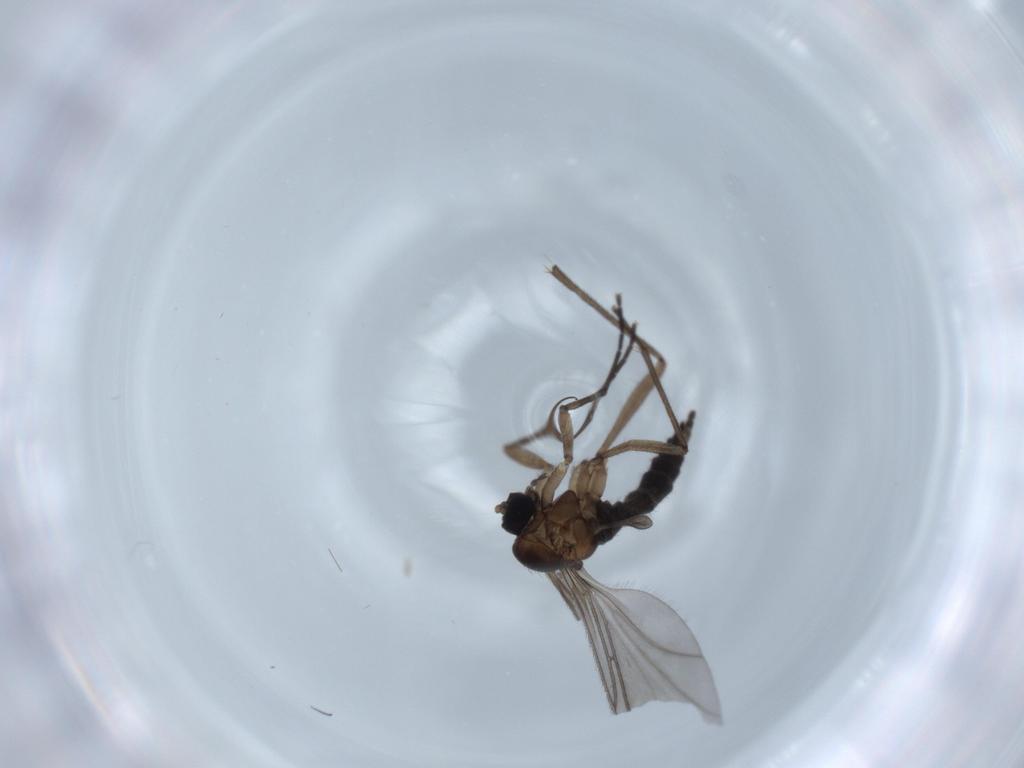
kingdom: Animalia
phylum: Arthropoda
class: Insecta
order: Diptera
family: Sciaridae
